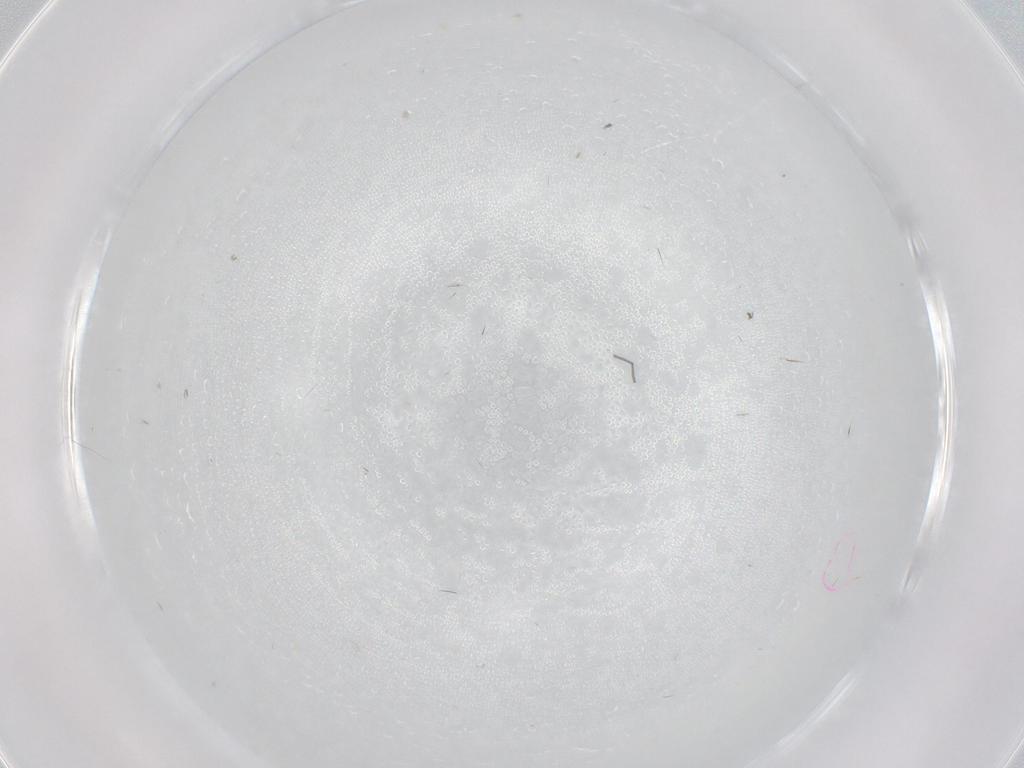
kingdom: Animalia
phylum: Arthropoda
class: Insecta
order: Diptera
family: Cecidomyiidae
